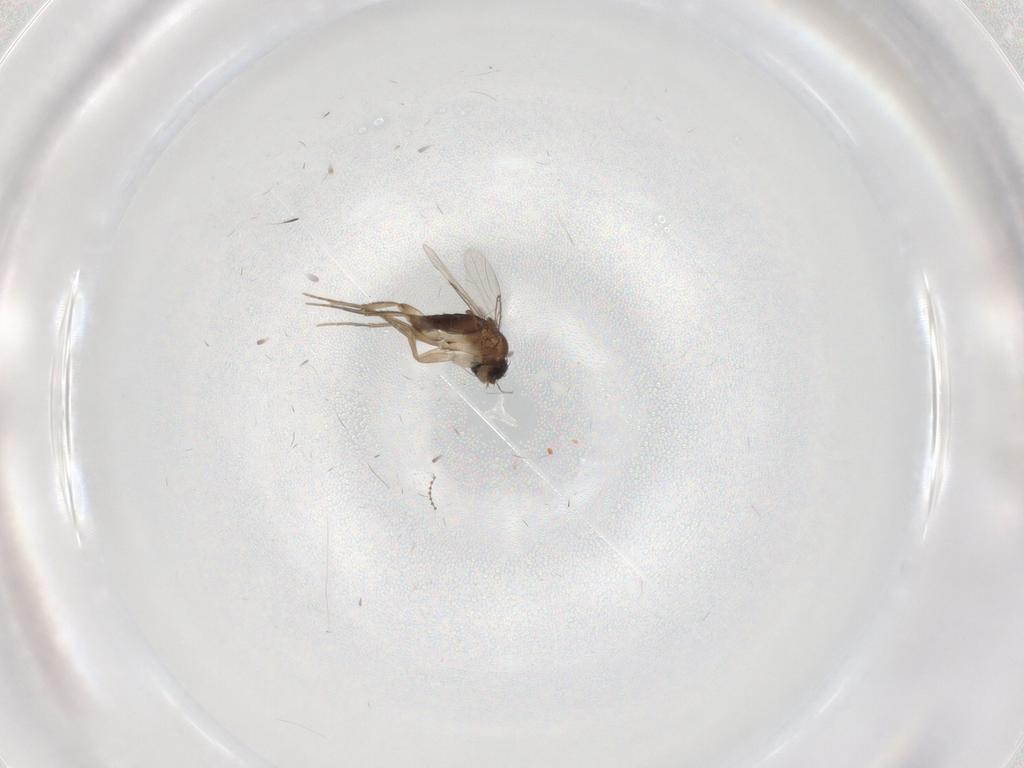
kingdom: Animalia
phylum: Arthropoda
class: Insecta
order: Diptera
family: Phoridae
